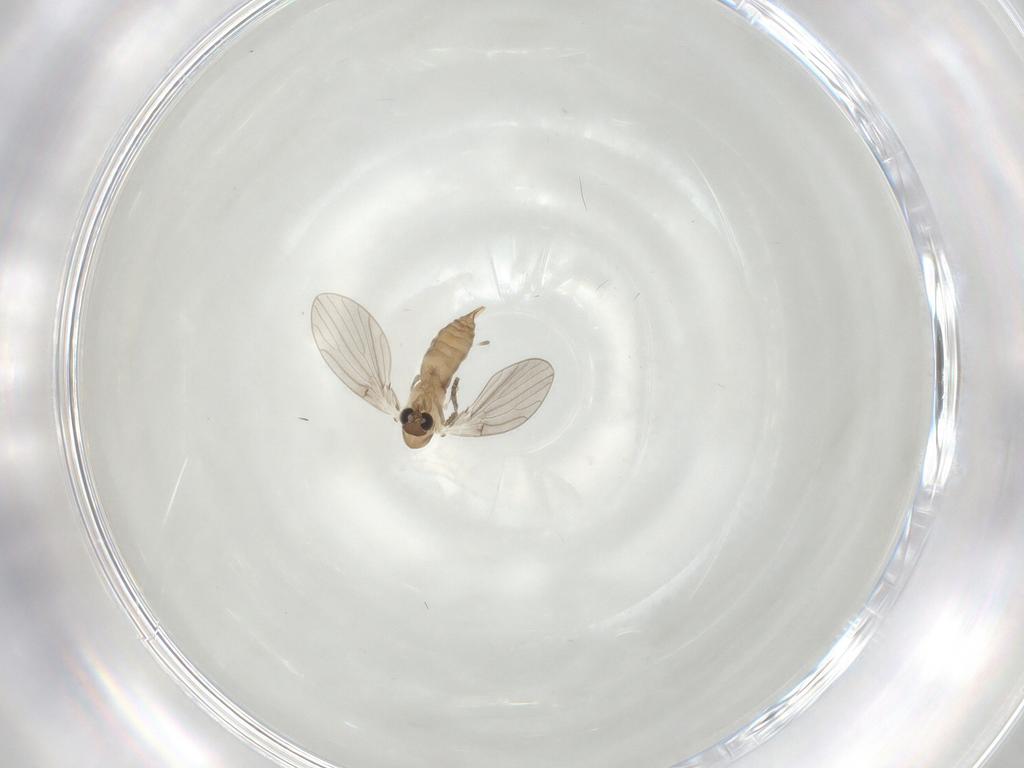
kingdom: Animalia
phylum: Arthropoda
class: Insecta
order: Diptera
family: Psychodidae
